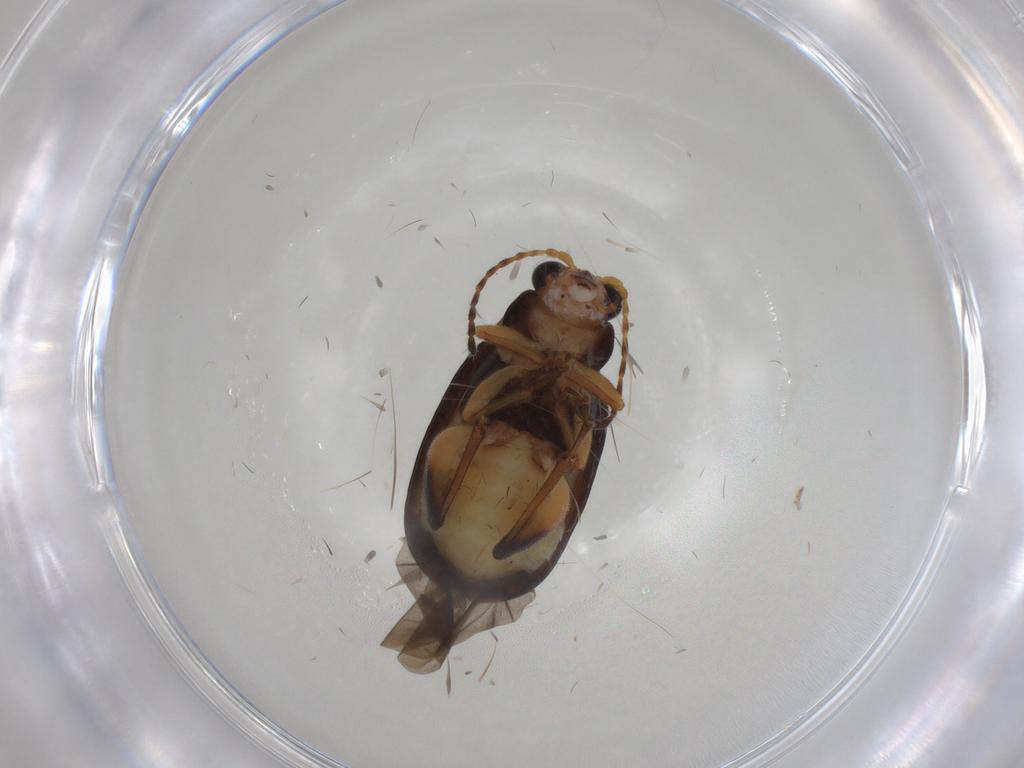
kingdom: Animalia
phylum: Arthropoda
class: Insecta
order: Coleoptera
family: Chrysomelidae
